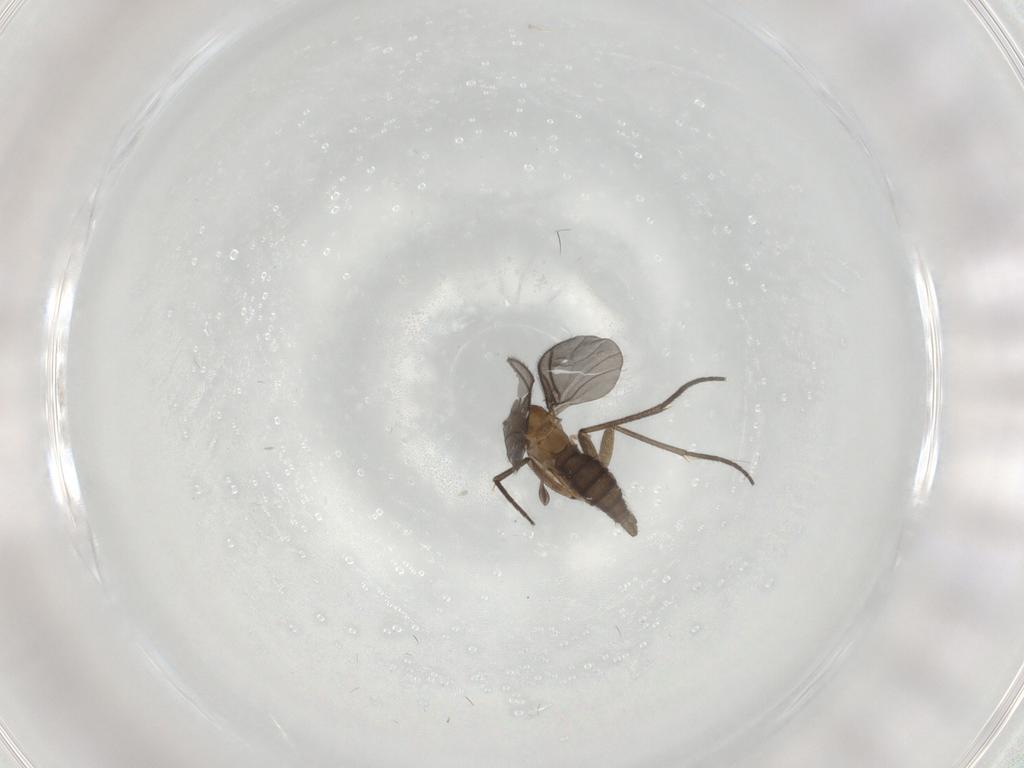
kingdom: Animalia
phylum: Arthropoda
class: Insecta
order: Diptera
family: Sciaridae
